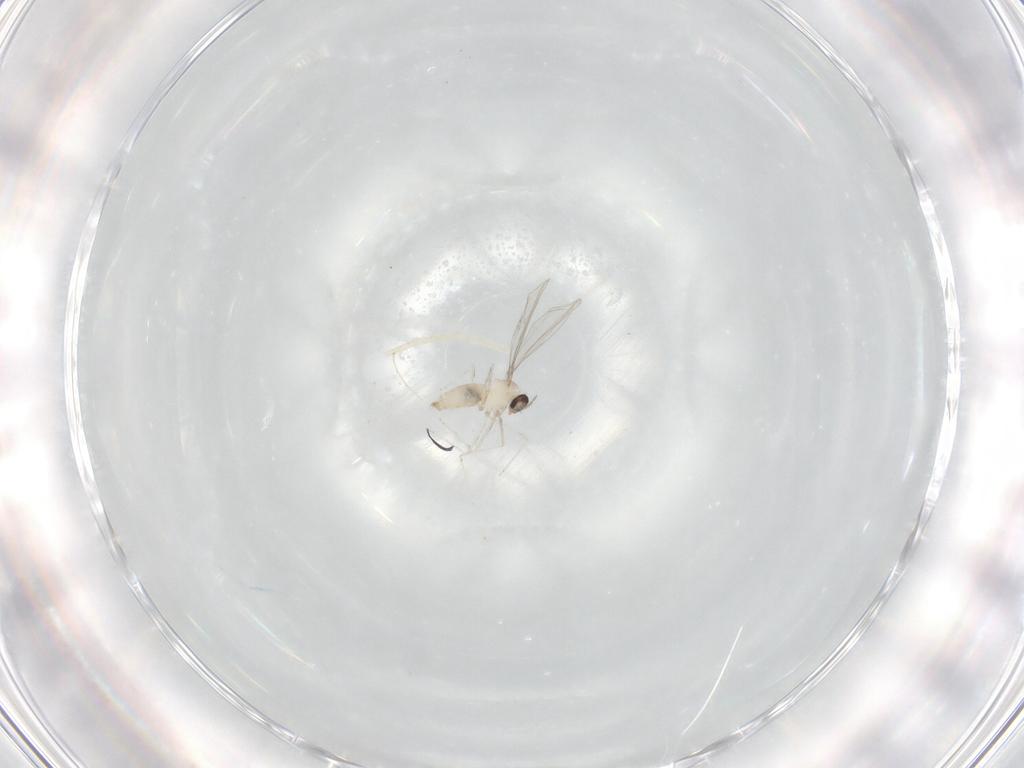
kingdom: Animalia
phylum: Arthropoda
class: Insecta
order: Diptera
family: Cecidomyiidae
